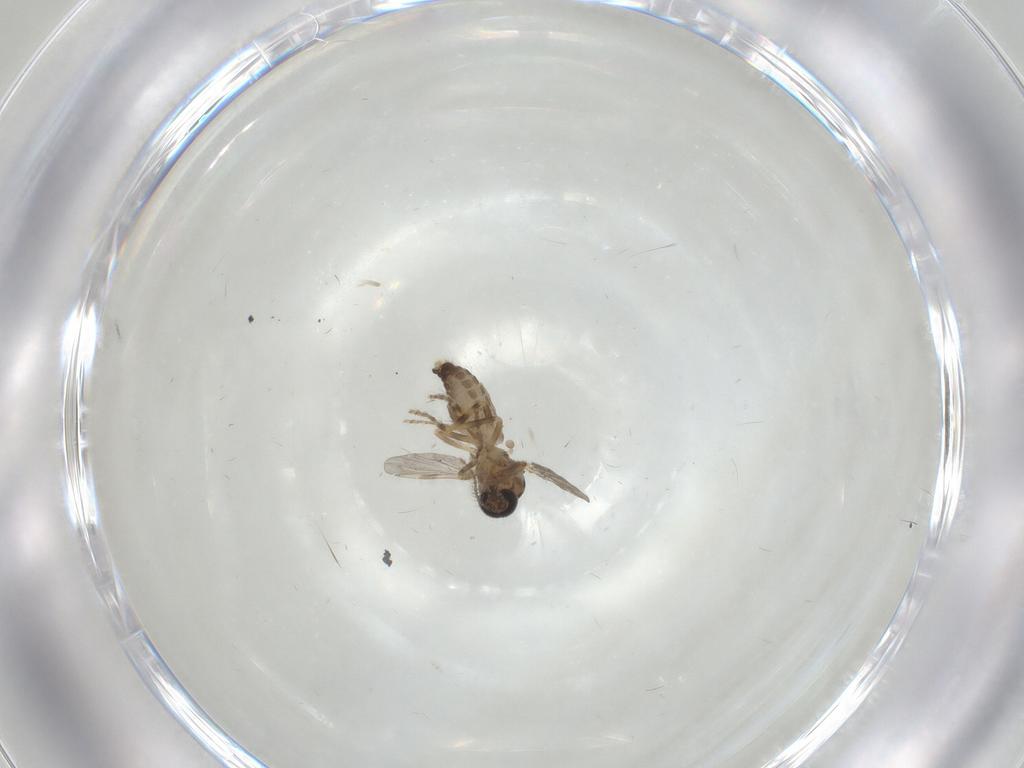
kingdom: Animalia
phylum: Arthropoda
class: Insecta
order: Diptera
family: Ceratopogonidae
